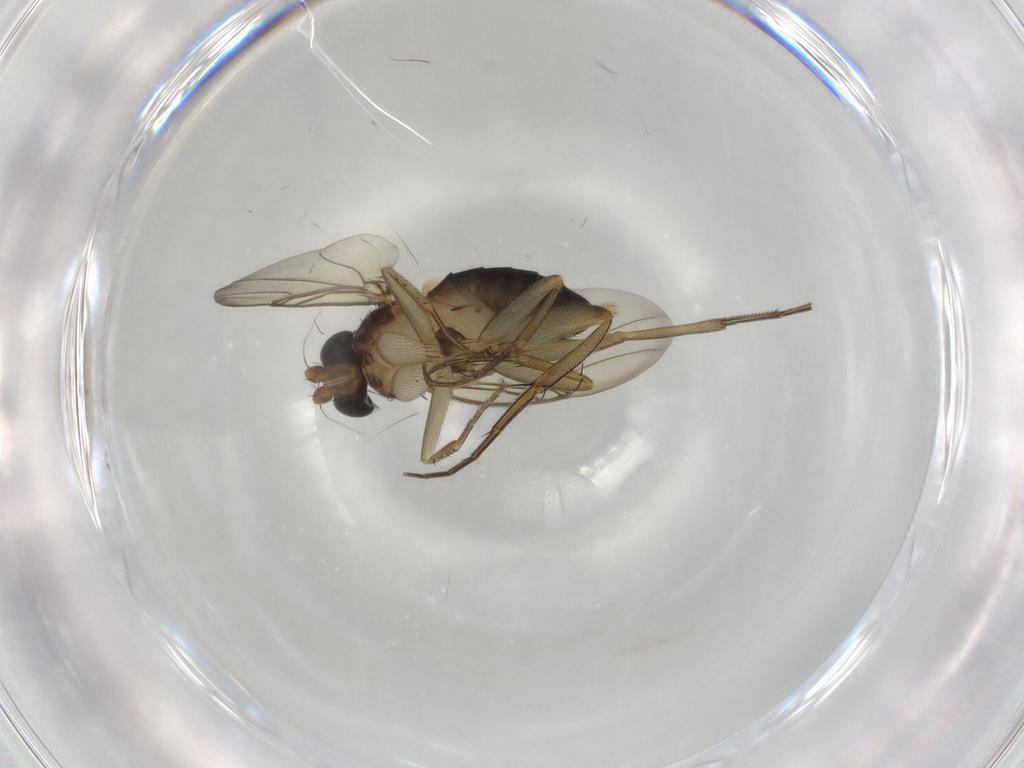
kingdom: Animalia
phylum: Arthropoda
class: Insecta
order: Diptera
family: Phoridae
